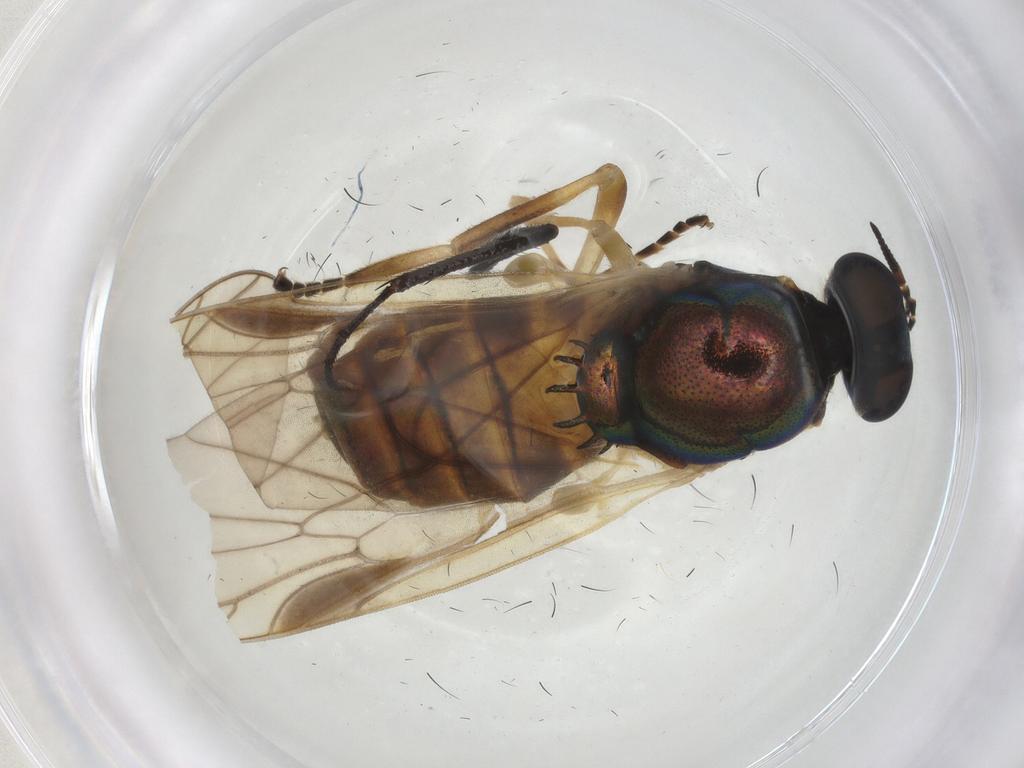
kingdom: Animalia
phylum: Arthropoda
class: Insecta
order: Diptera
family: Stratiomyidae
